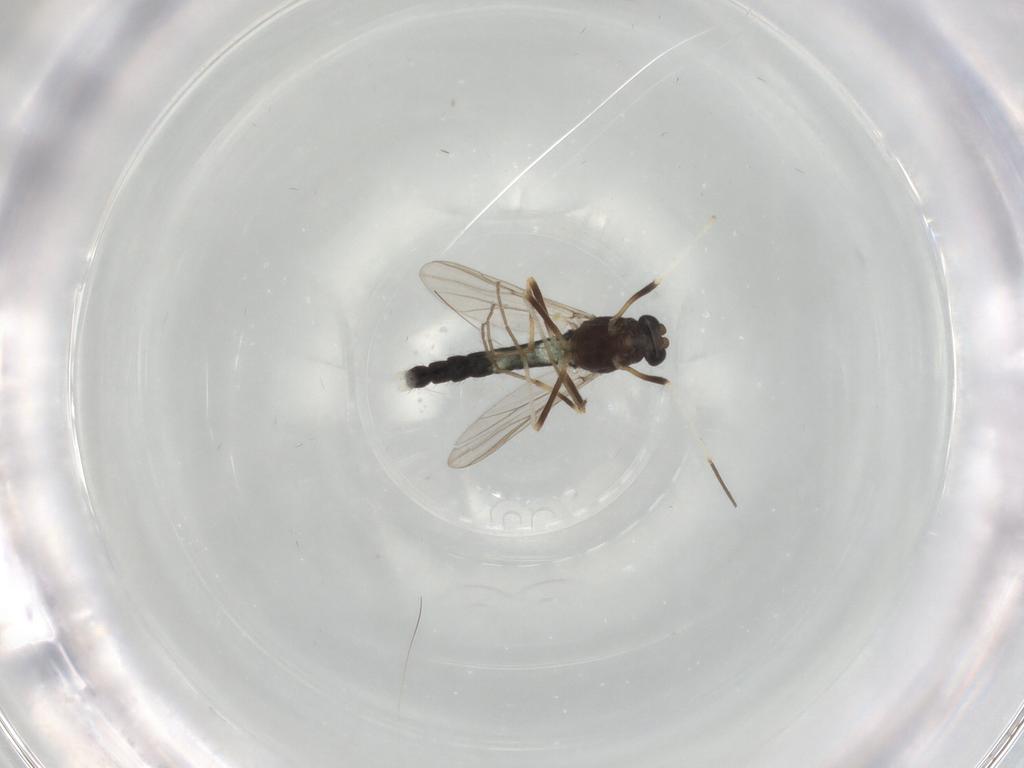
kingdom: Animalia
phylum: Arthropoda
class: Insecta
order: Diptera
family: Chironomidae
